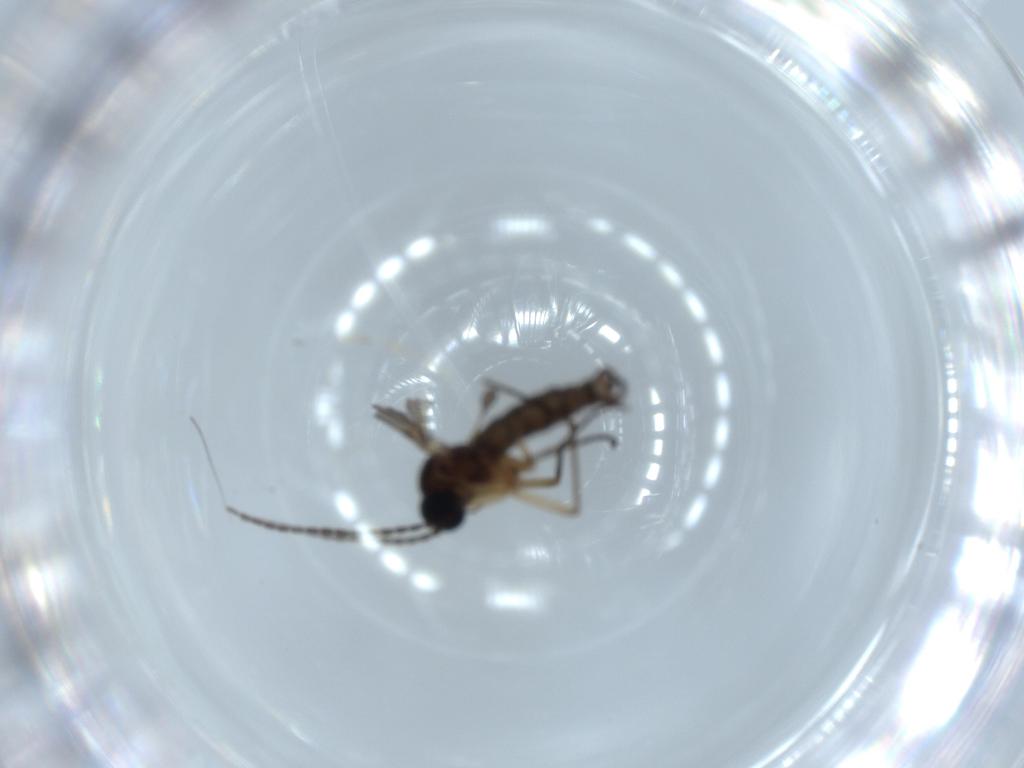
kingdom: Animalia
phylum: Arthropoda
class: Insecta
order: Diptera
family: Sciaridae
